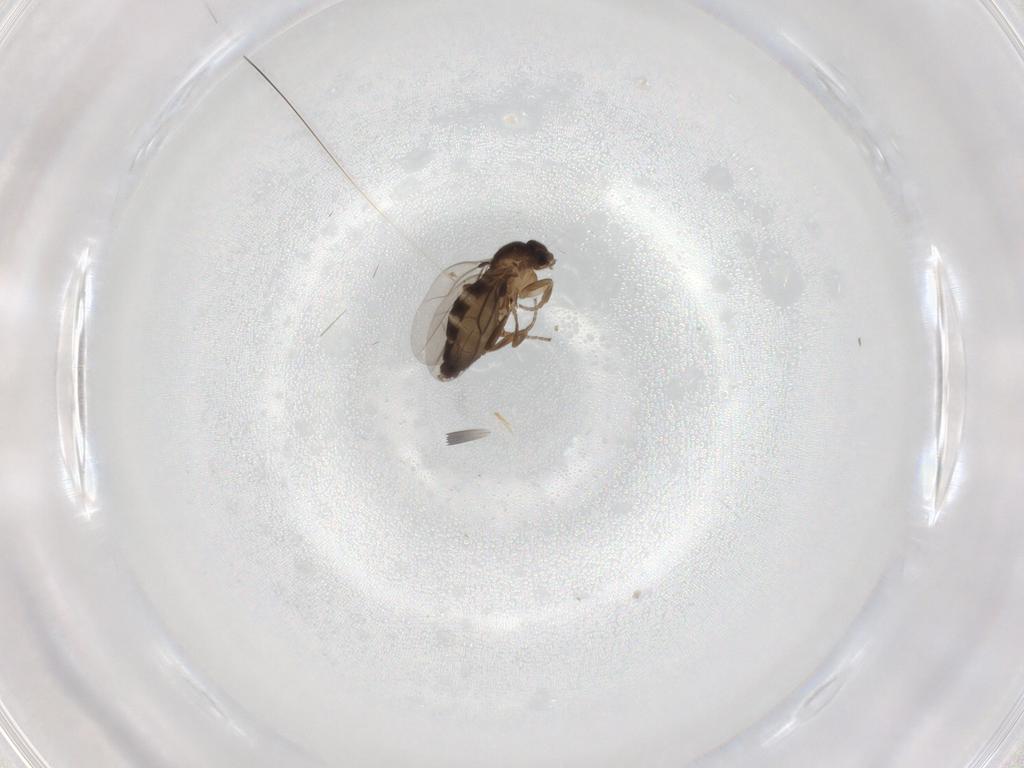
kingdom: Animalia
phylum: Arthropoda
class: Insecta
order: Diptera
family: Phoridae
